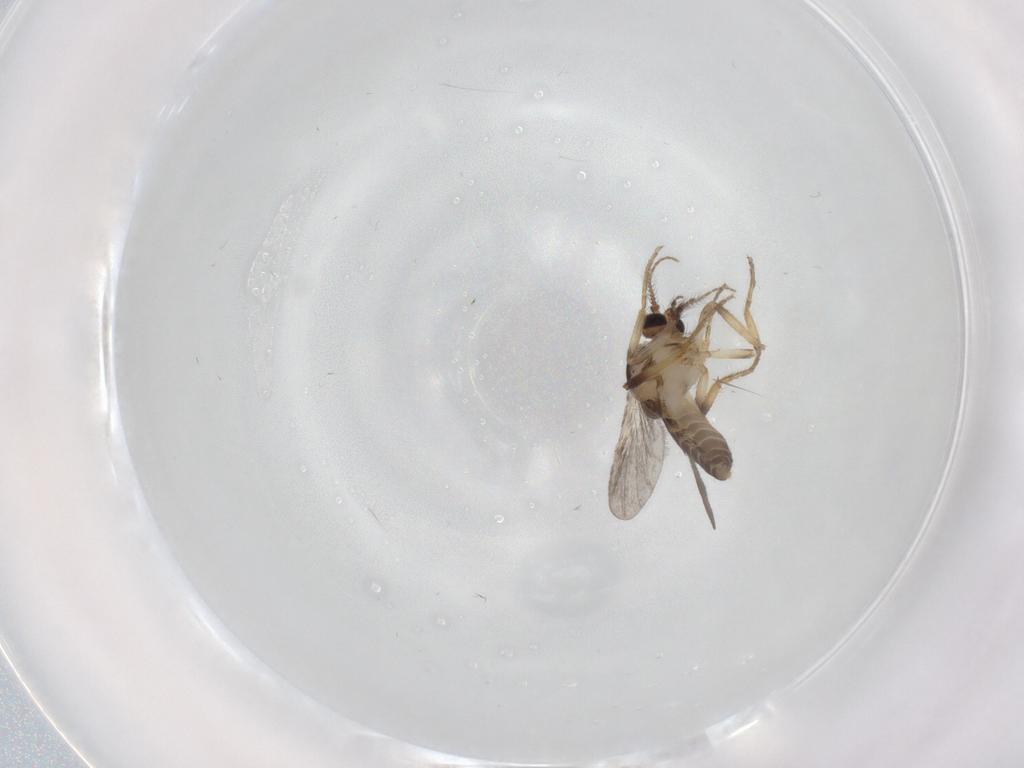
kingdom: Animalia
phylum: Arthropoda
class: Insecta
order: Diptera
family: Ceratopogonidae
